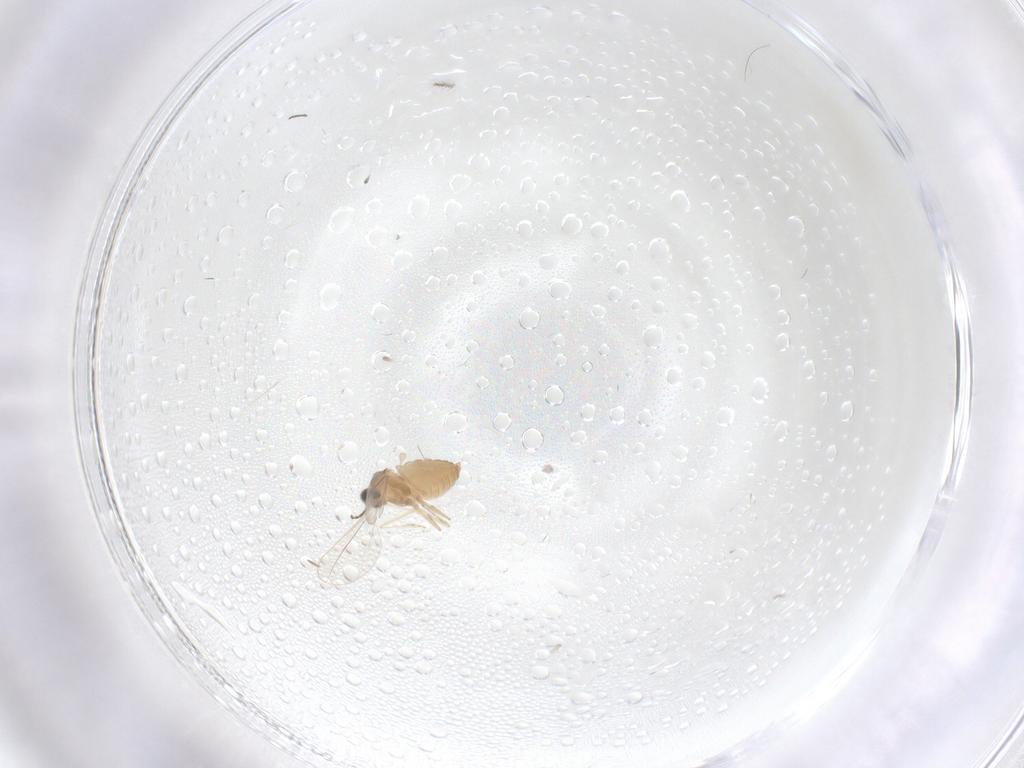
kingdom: Animalia
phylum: Arthropoda
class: Insecta
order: Diptera
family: Cecidomyiidae
